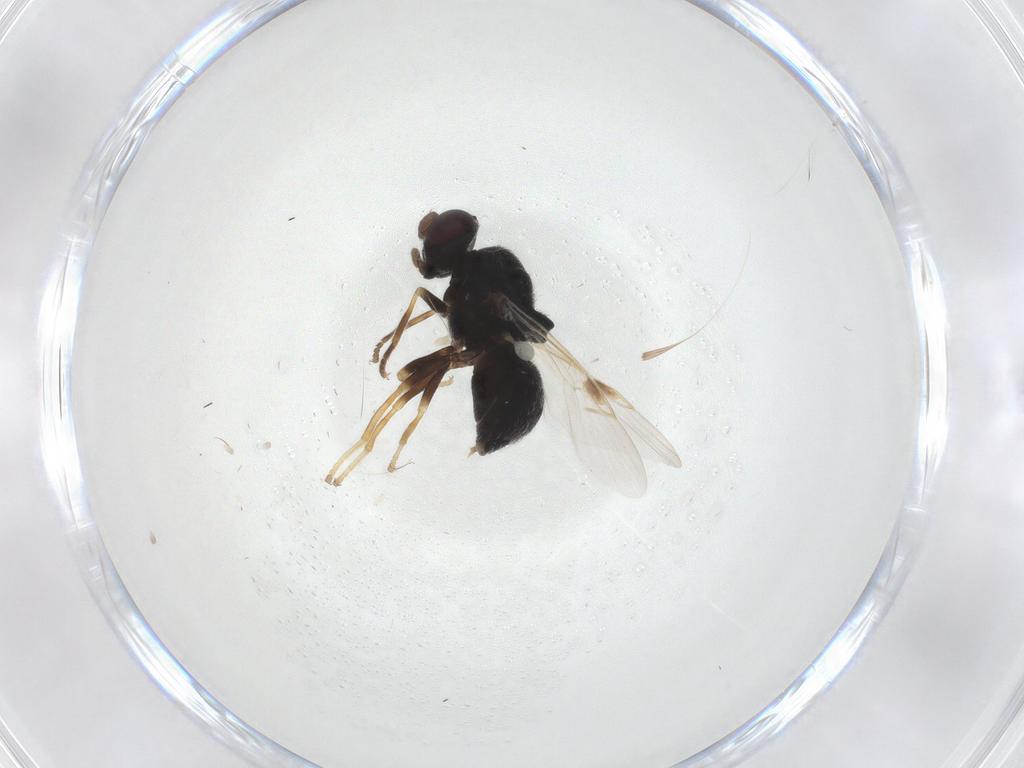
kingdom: Animalia
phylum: Arthropoda
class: Insecta
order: Diptera
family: Stratiomyidae
